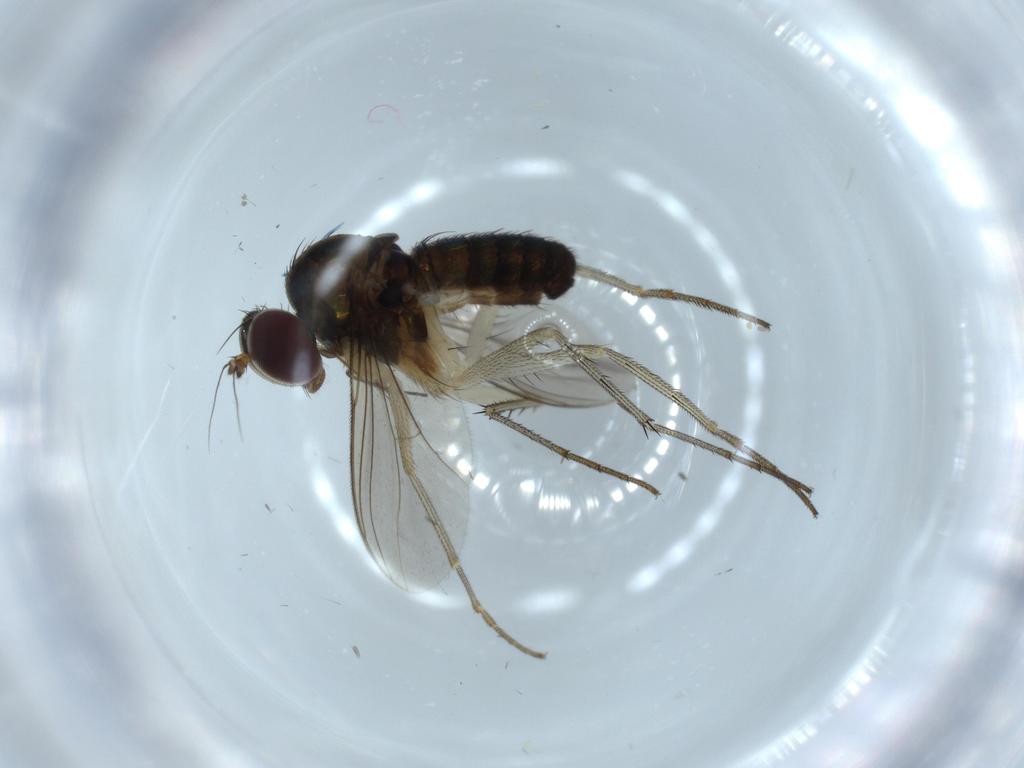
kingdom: Animalia
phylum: Arthropoda
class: Insecta
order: Diptera
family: Dolichopodidae
